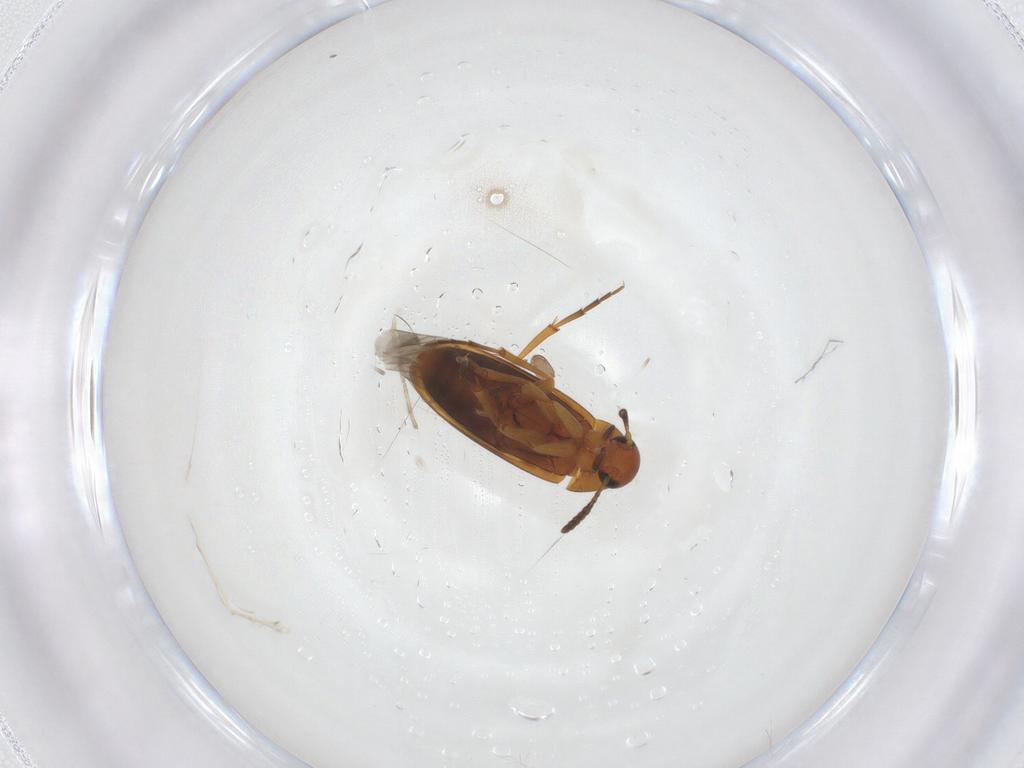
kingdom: Animalia
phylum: Arthropoda
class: Insecta
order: Coleoptera
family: Scraptiidae
